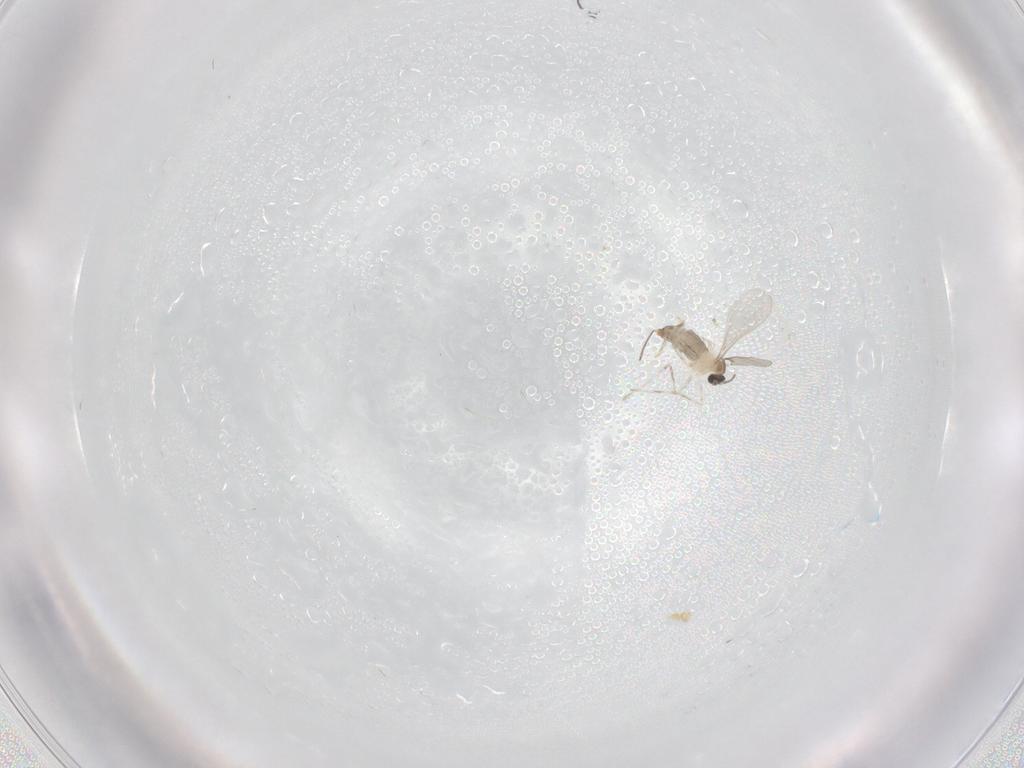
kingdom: Animalia
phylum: Arthropoda
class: Insecta
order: Diptera
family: Cecidomyiidae
